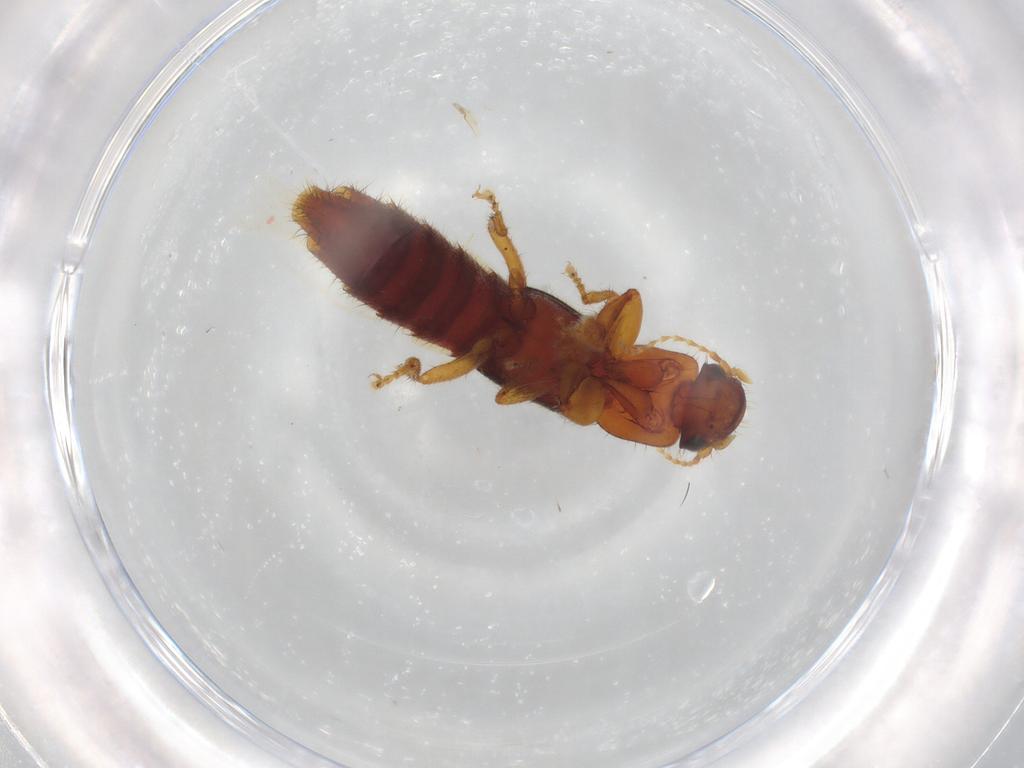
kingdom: Animalia
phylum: Arthropoda
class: Insecta
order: Coleoptera
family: Staphylinidae
